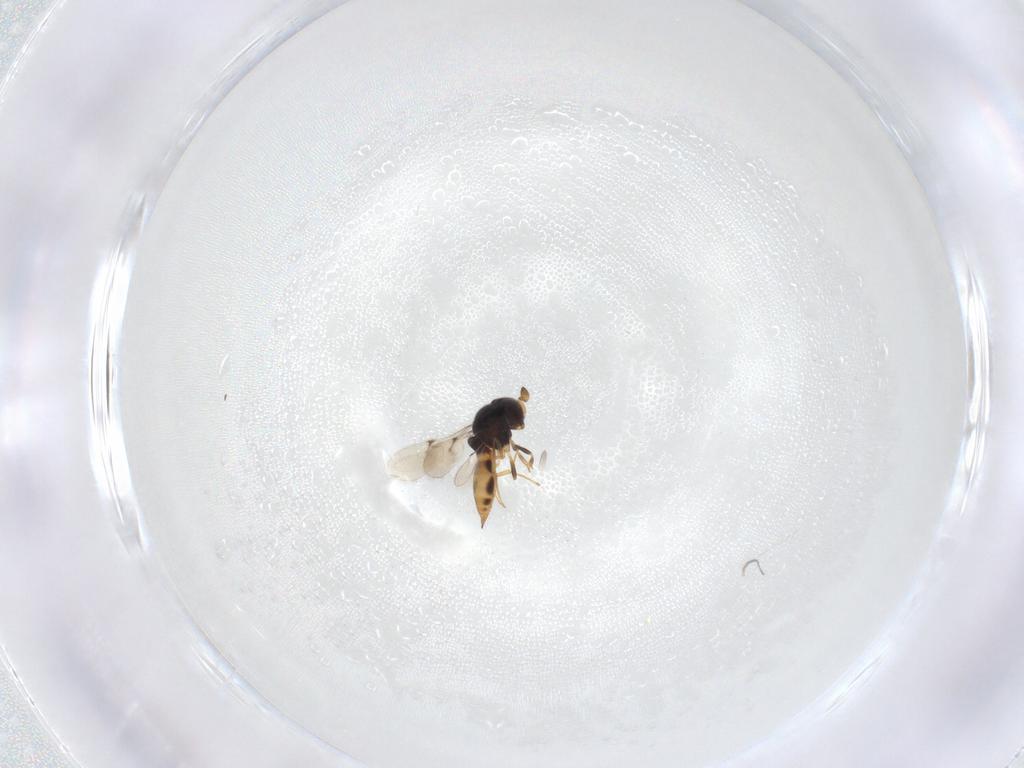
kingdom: Animalia
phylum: Arthropoda
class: Insecta
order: Hymenoptera
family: Scelionidae
